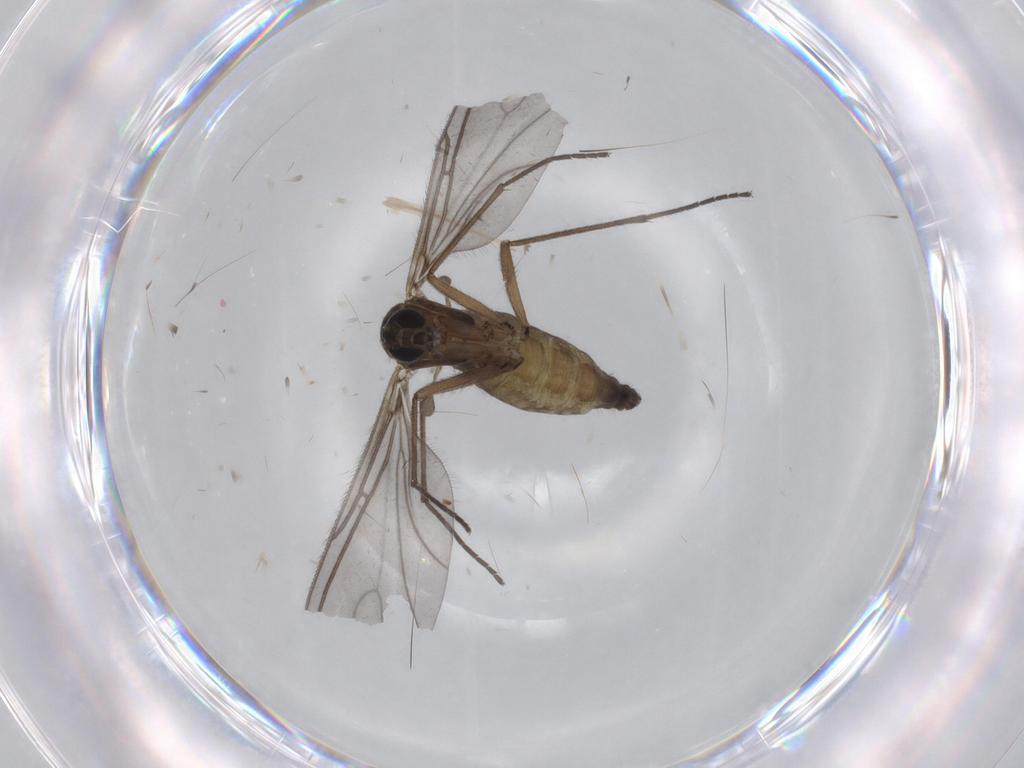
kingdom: Animalia
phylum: Arthropoda
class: Insecta
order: Diptera
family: Sciaridae
